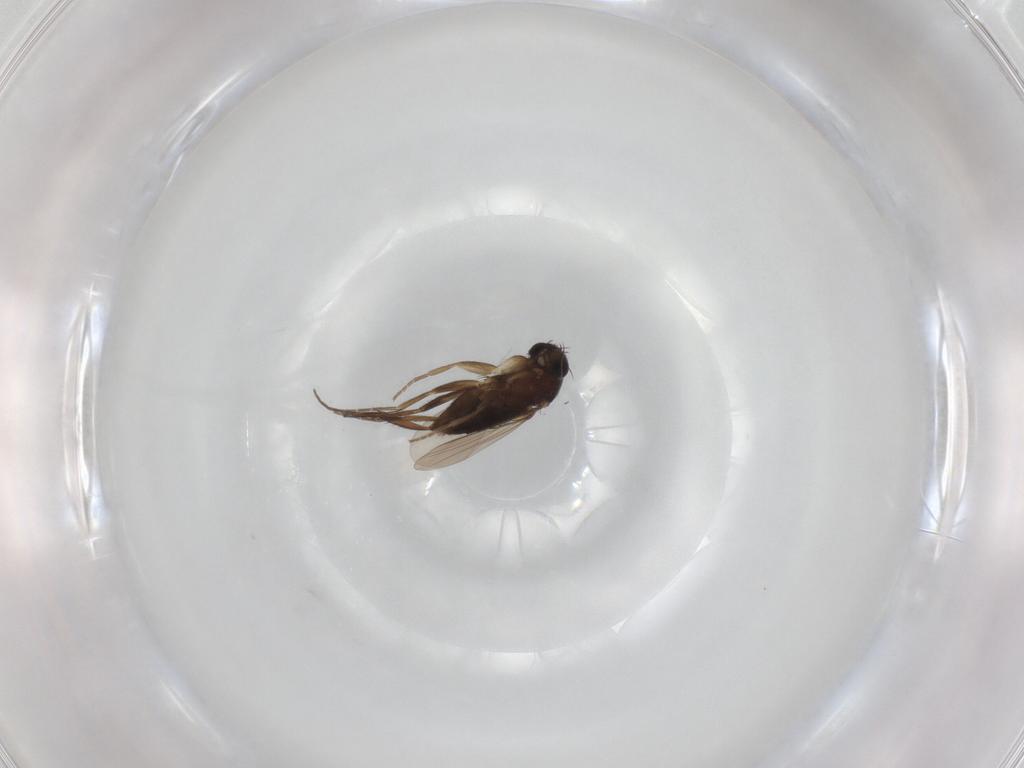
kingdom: Animalia
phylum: Arthropoda
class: Insecta
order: Diptera
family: Phoridae
